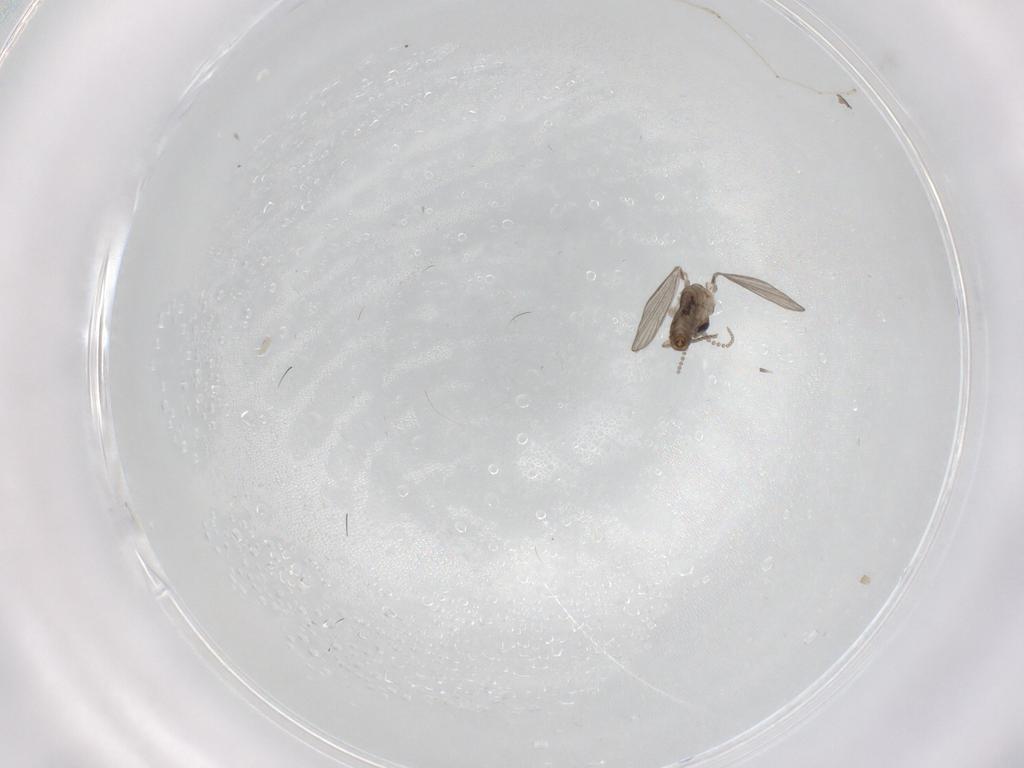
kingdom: Animalia
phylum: Arthropoda
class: Insecta
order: Diptera
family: Psychodidae
